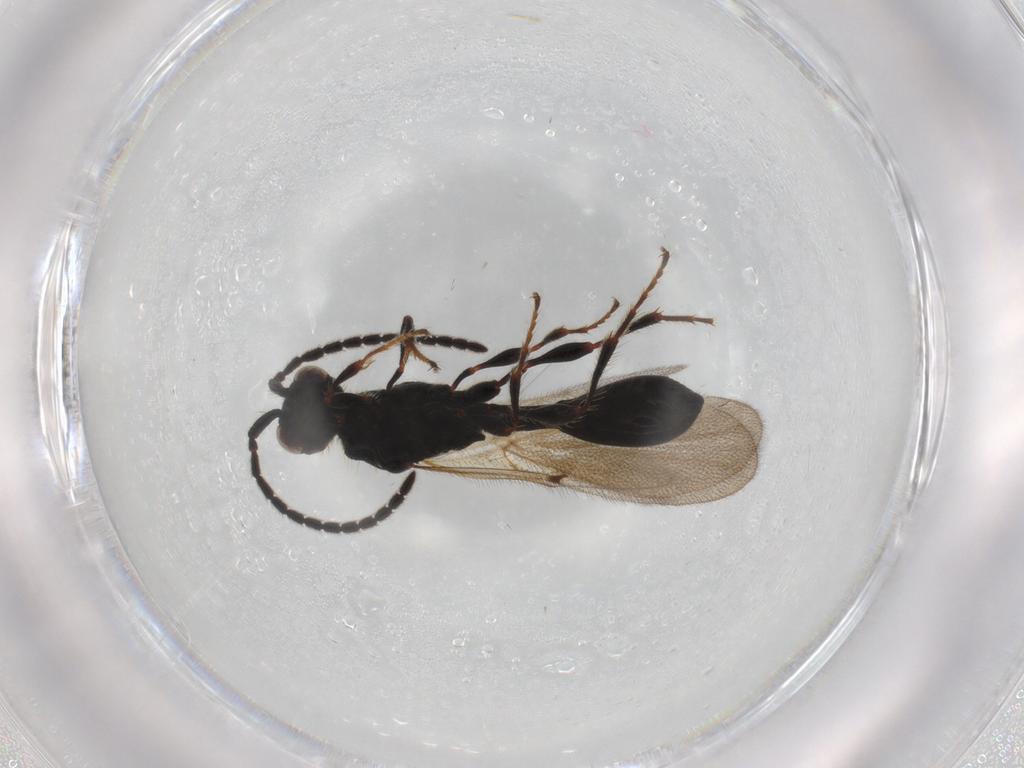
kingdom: Animalia
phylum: Arthropoda
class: Insecta
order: Hymenoptera
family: Diapriidae
